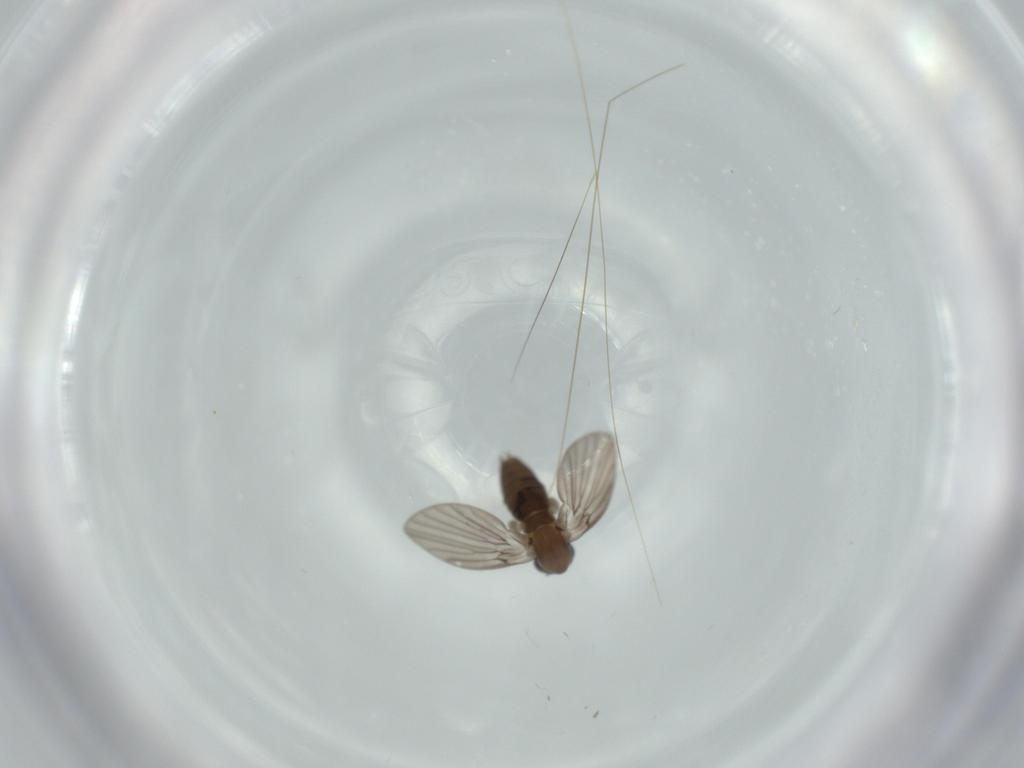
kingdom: Animalia
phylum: Arthropoda
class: Insecta
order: Diptera
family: Psychodidae
